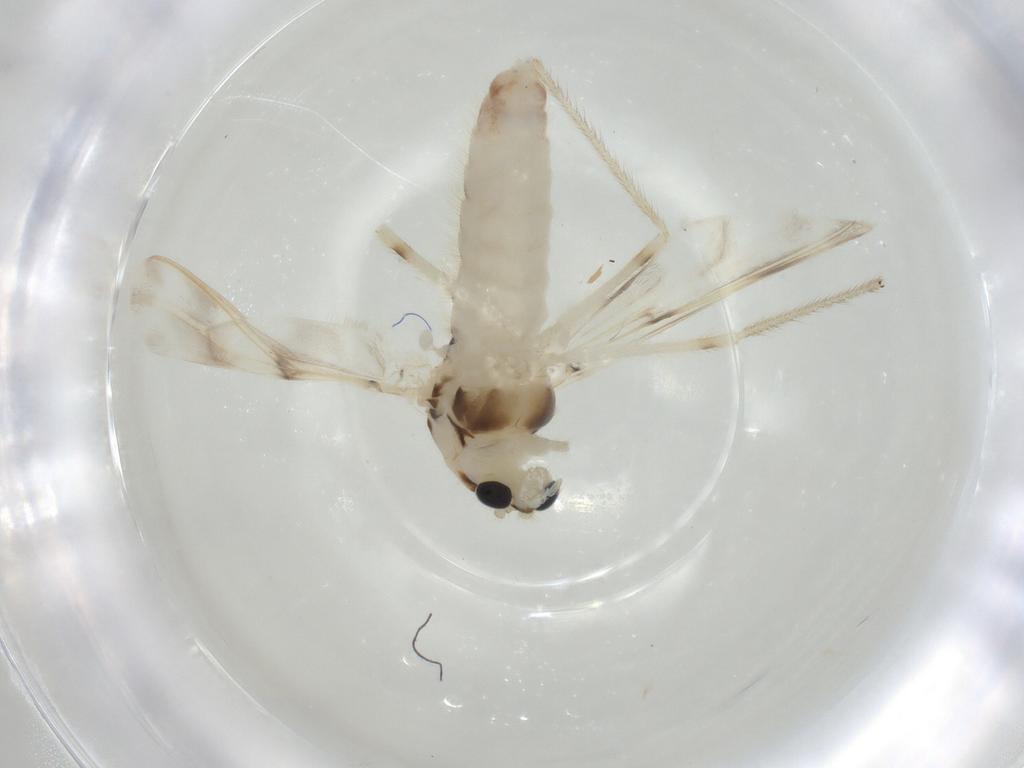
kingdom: Animalia
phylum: Arthropoda
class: Insecta
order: Diptera
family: Chironomidae
